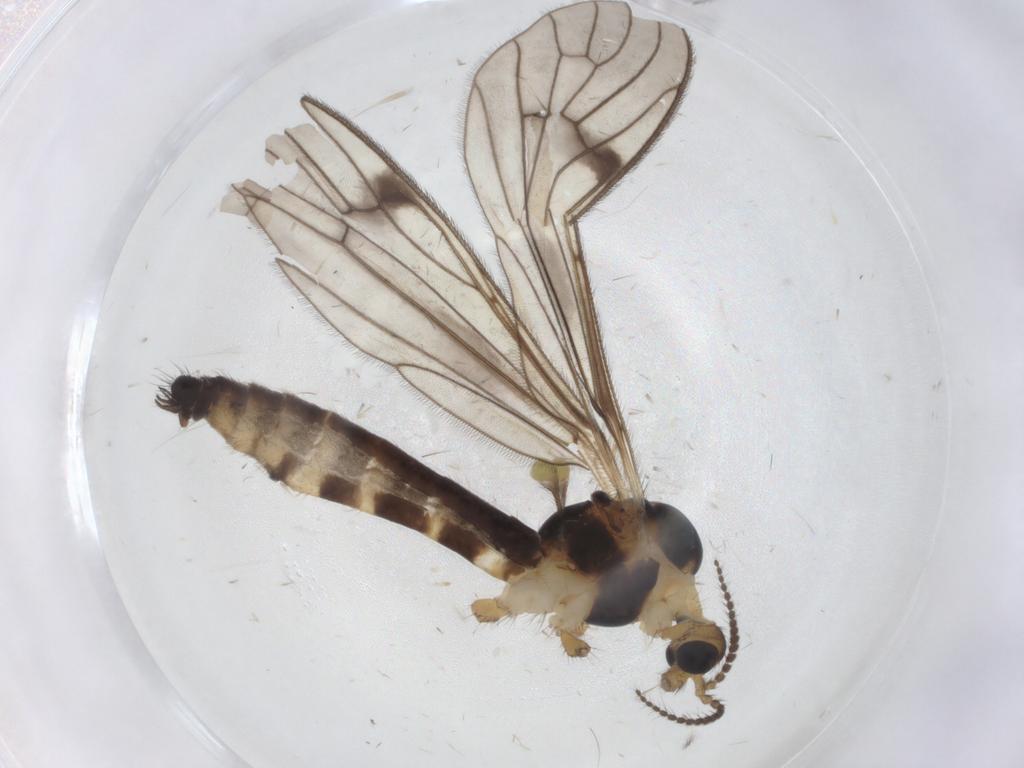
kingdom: Animalia
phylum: Arthropoda
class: Insecta
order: Diptera
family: Limoniidae
